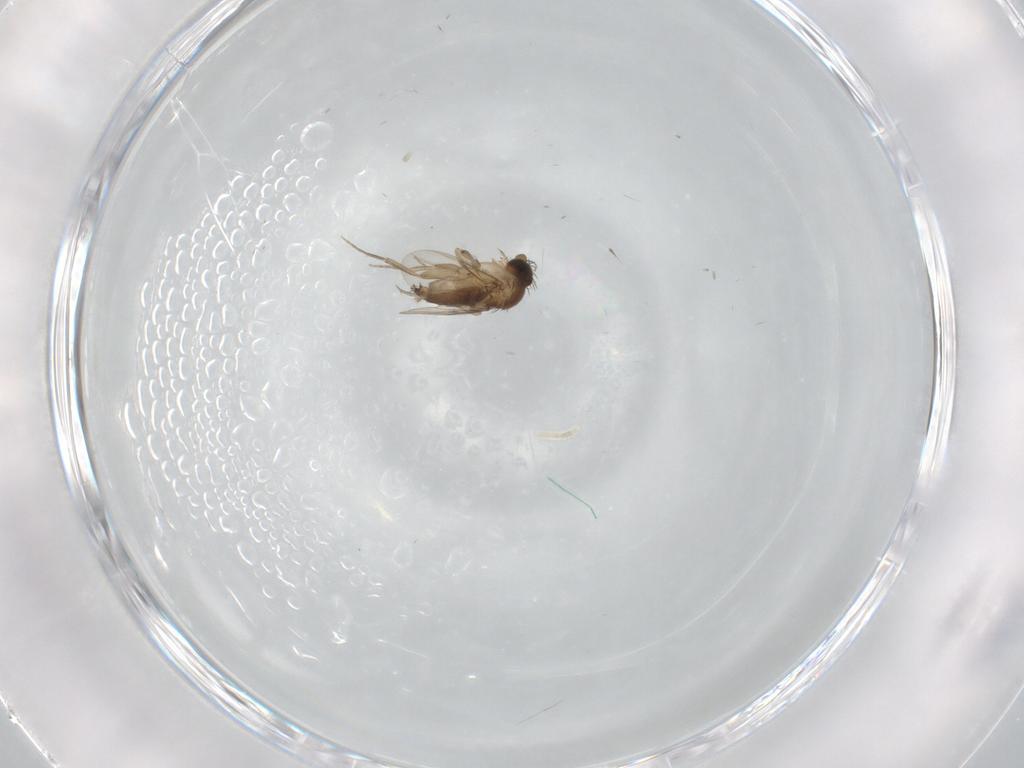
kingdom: Animalia
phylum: Arthropoda
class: Insecta
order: Diptera
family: Phoridae
